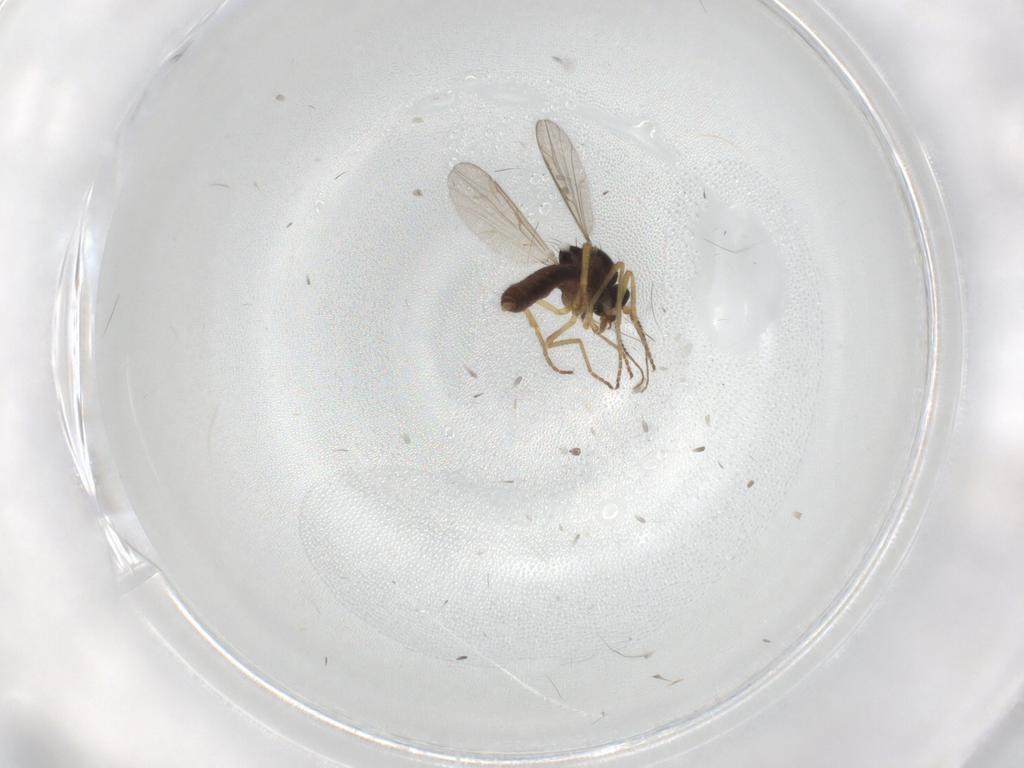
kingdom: Animalia
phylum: Arthropoda
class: Insecta
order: Diptera
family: Ceratopogonidae
